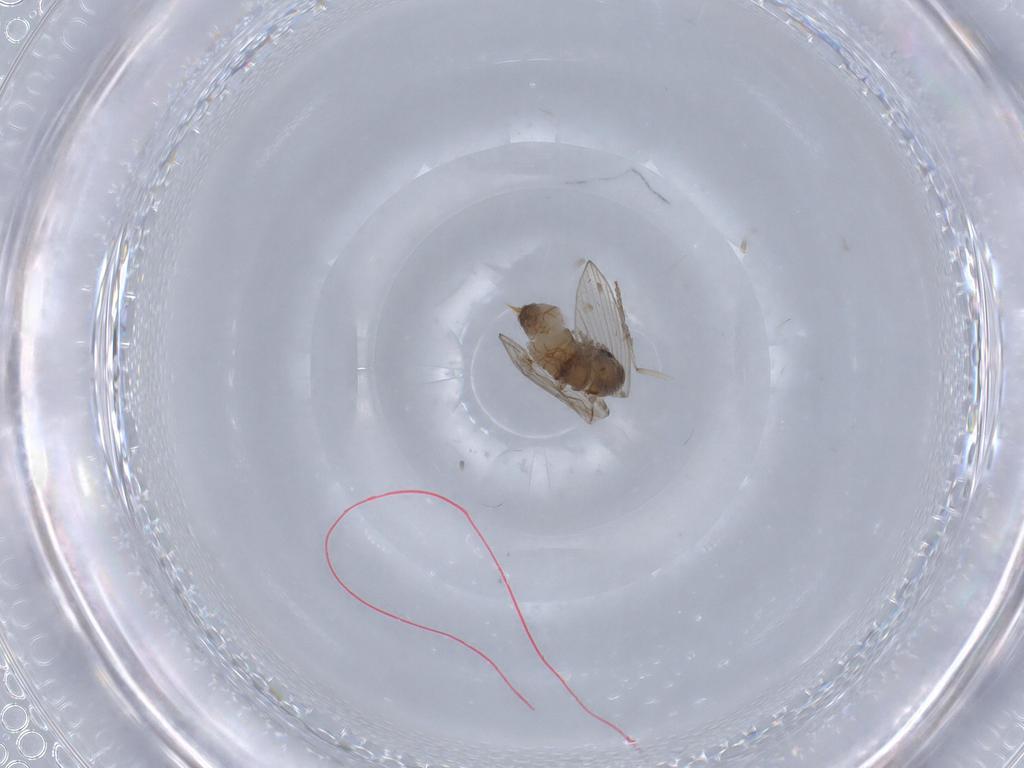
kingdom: Animalia
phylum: Arthropoda
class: Insecta
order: Diptera
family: Psychodidae
